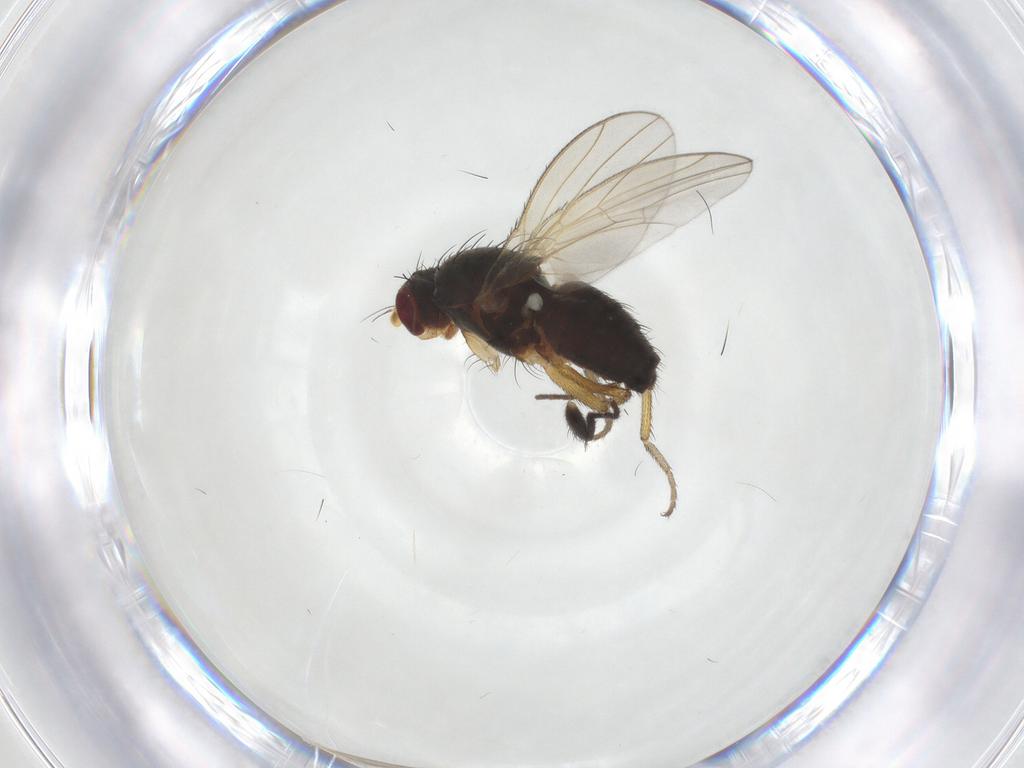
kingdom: Animalia
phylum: Arthropoda
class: Insecta
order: Diptera
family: Heleomyzidae
